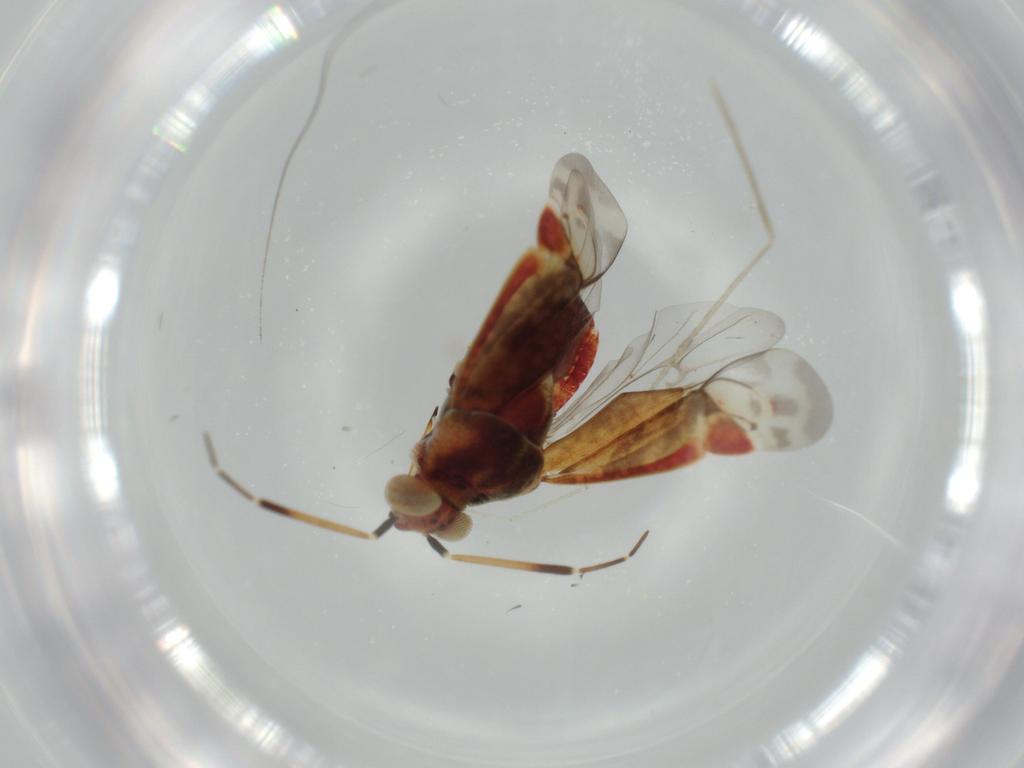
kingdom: Animalia
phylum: Arthropoda
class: Insecta
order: Hemiptera
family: Miridae
